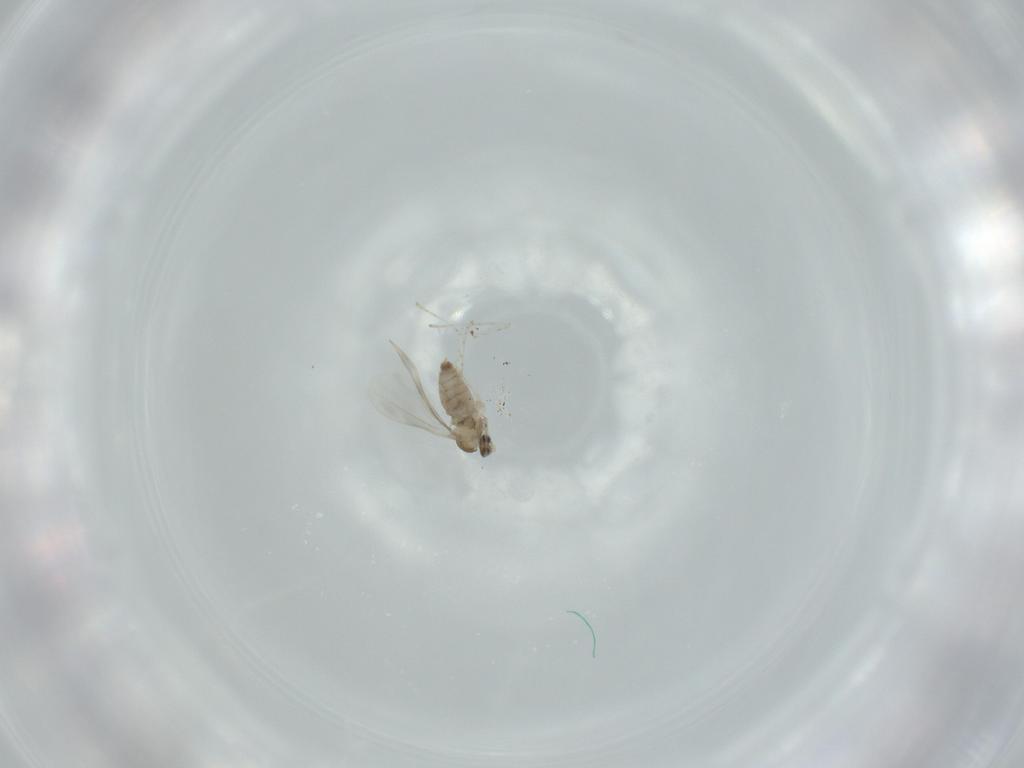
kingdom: Animalia
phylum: Arthropoda
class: Insecta
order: Diptera
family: Cecidomyiidae
